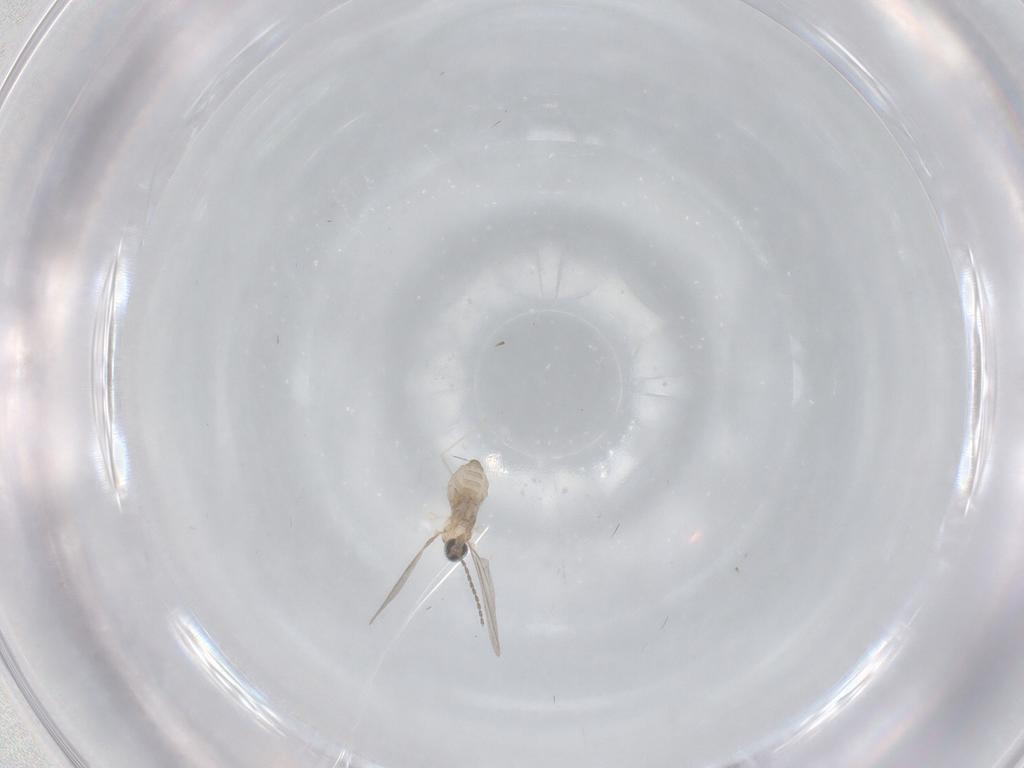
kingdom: Animalia
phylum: Arthropoda
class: Insecta
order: Diptera
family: Cecidomyiidae
